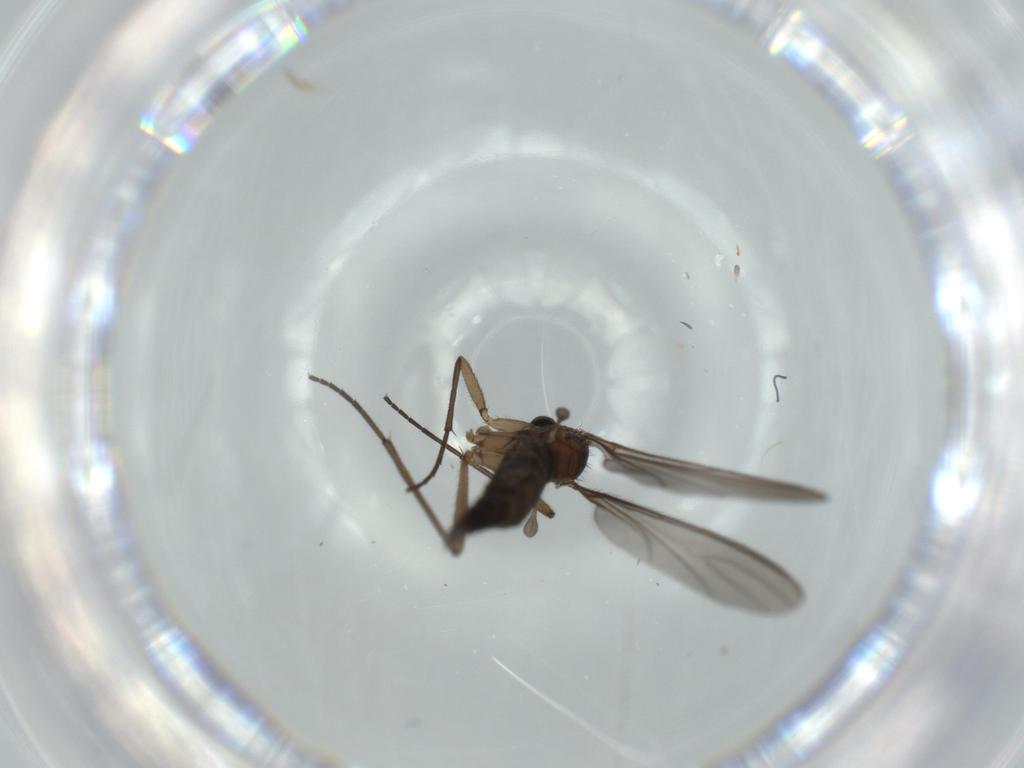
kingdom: Animalia
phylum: Arthropoda
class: Insecta
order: Diptera
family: Sciaridae
